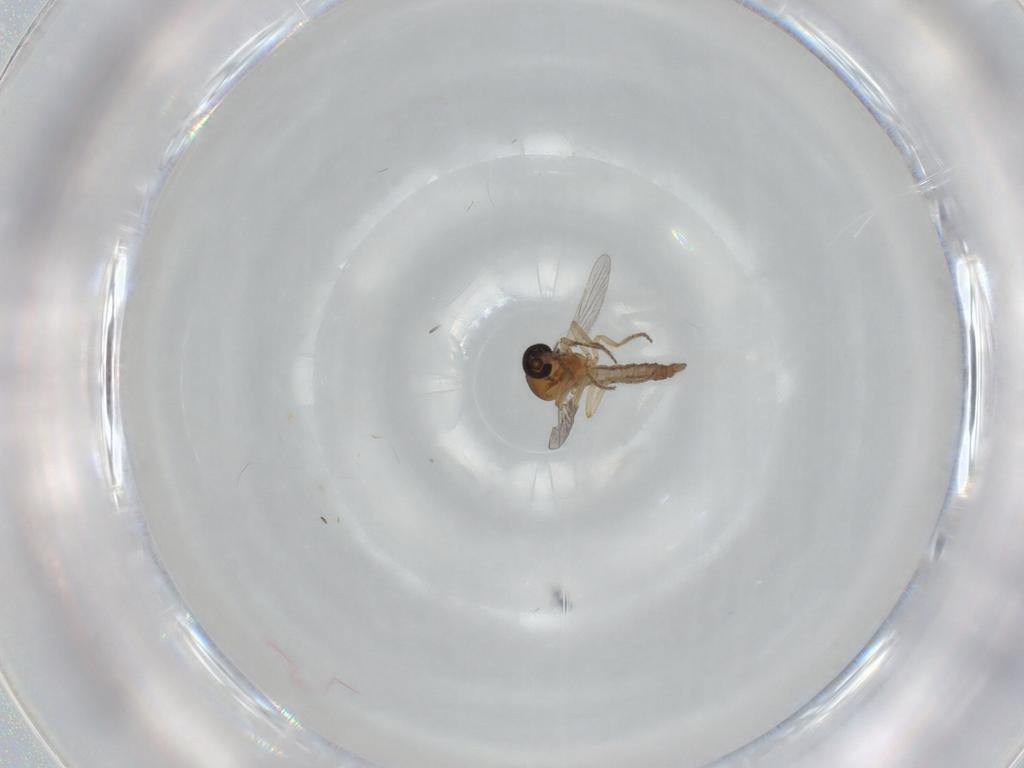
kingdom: Animalia
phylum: Arthropoda
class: Insecta
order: Diptera
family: Ceratopogonidae
